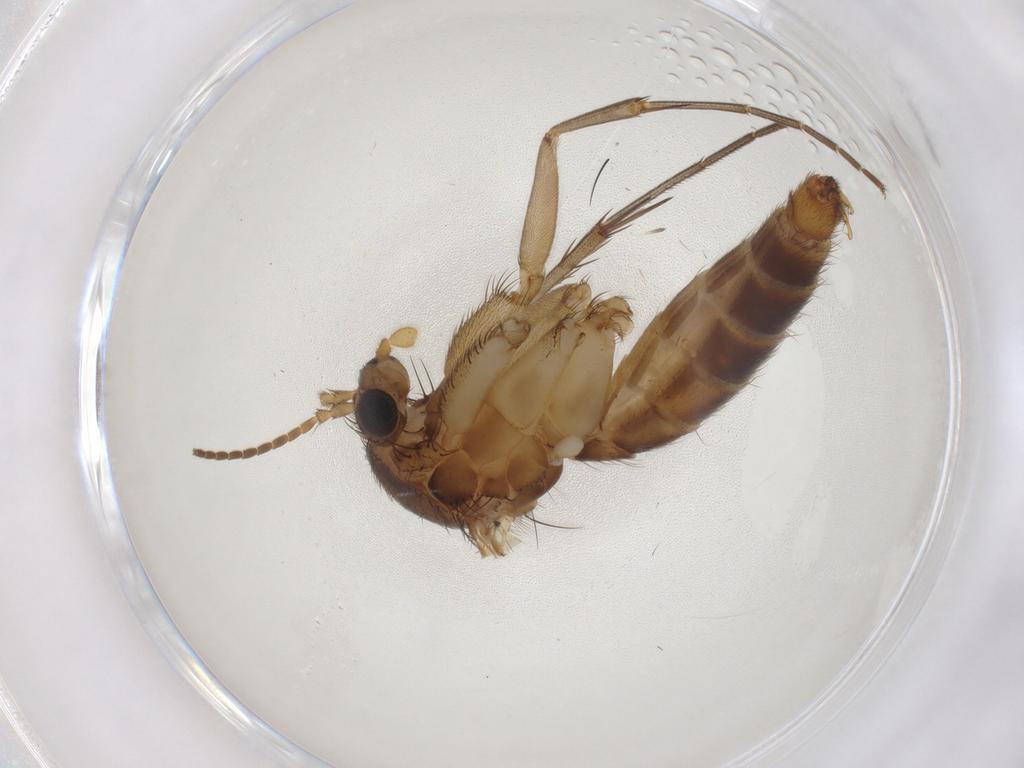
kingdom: Animalia
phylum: Arthropoda
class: Insecta
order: Diptera
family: Mycetophilidae
